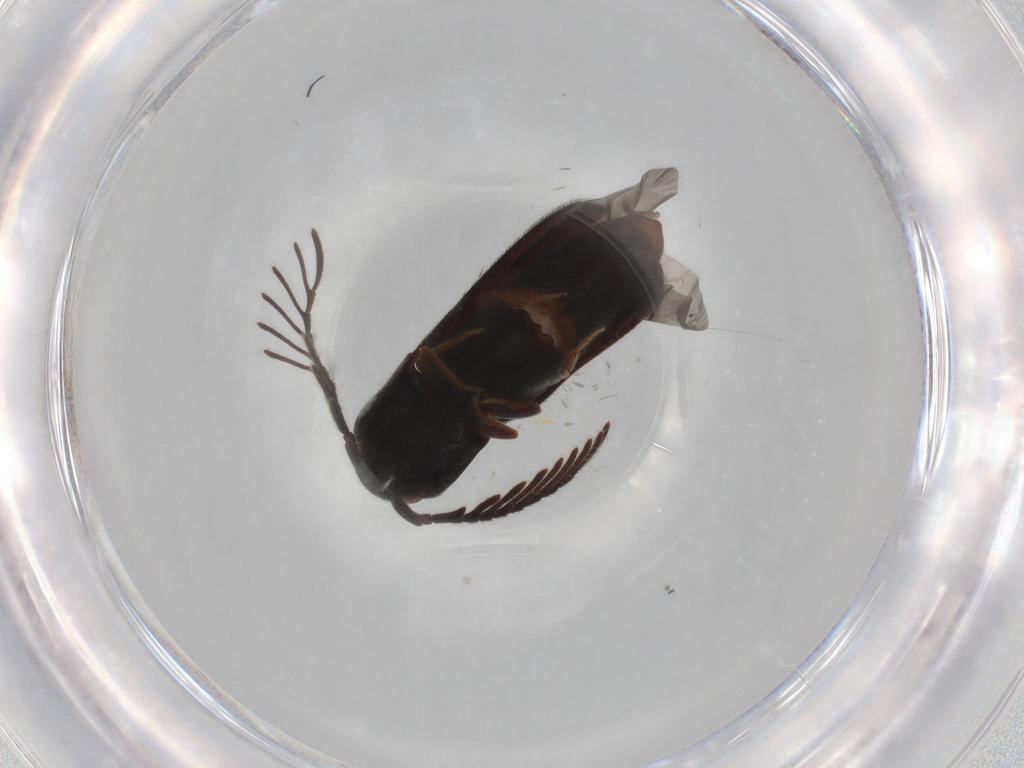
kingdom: Animalia
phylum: Arthropoda
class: Insecta
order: Coleoptera
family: Eucnemidae
